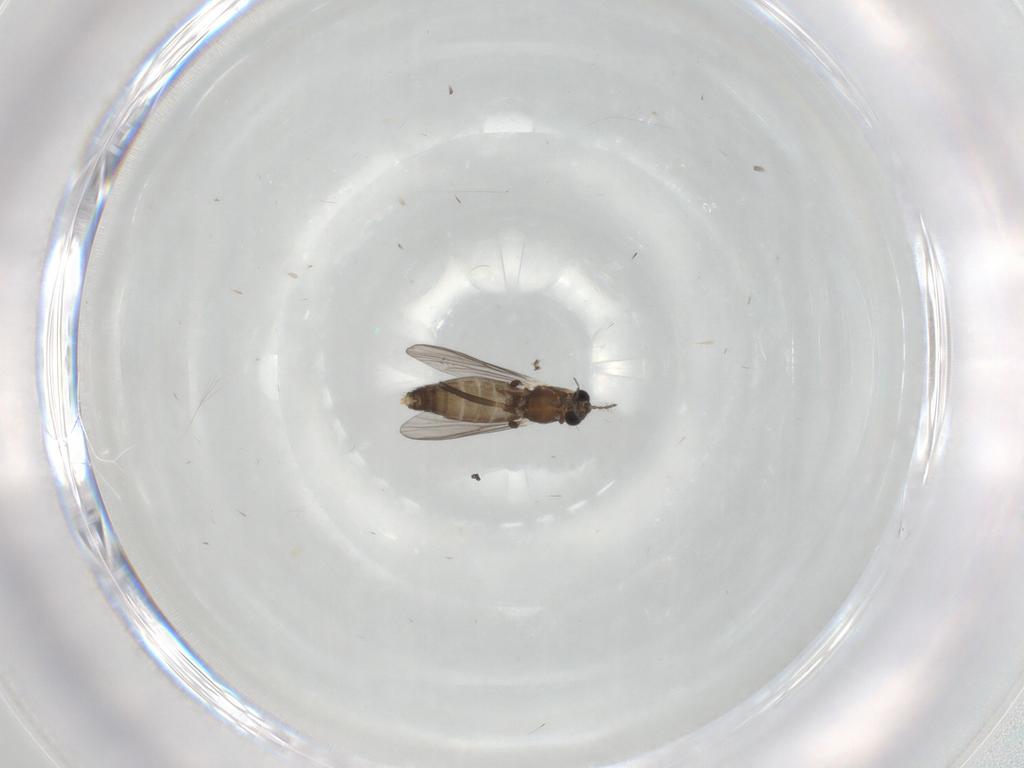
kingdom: Animalia
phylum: Arthropoda
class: Insecta
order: Diptera
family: Chironomidae
